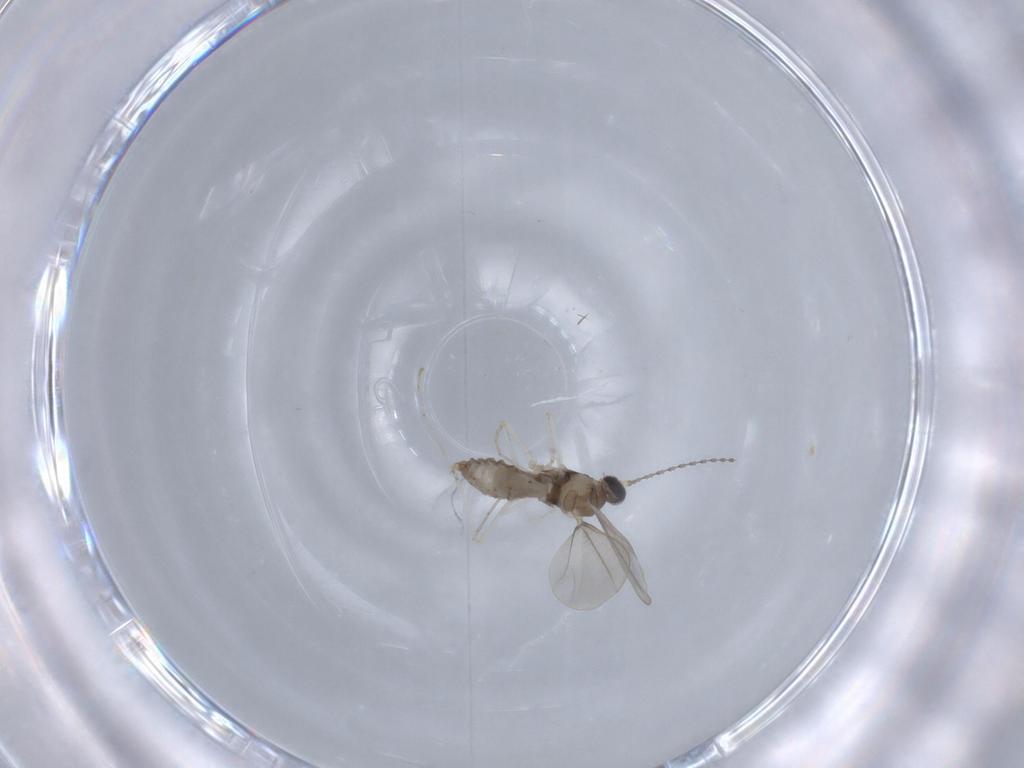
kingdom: Animalia
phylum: Arthropoda
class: Insecta
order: Diptera
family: Cecidomyiidae
